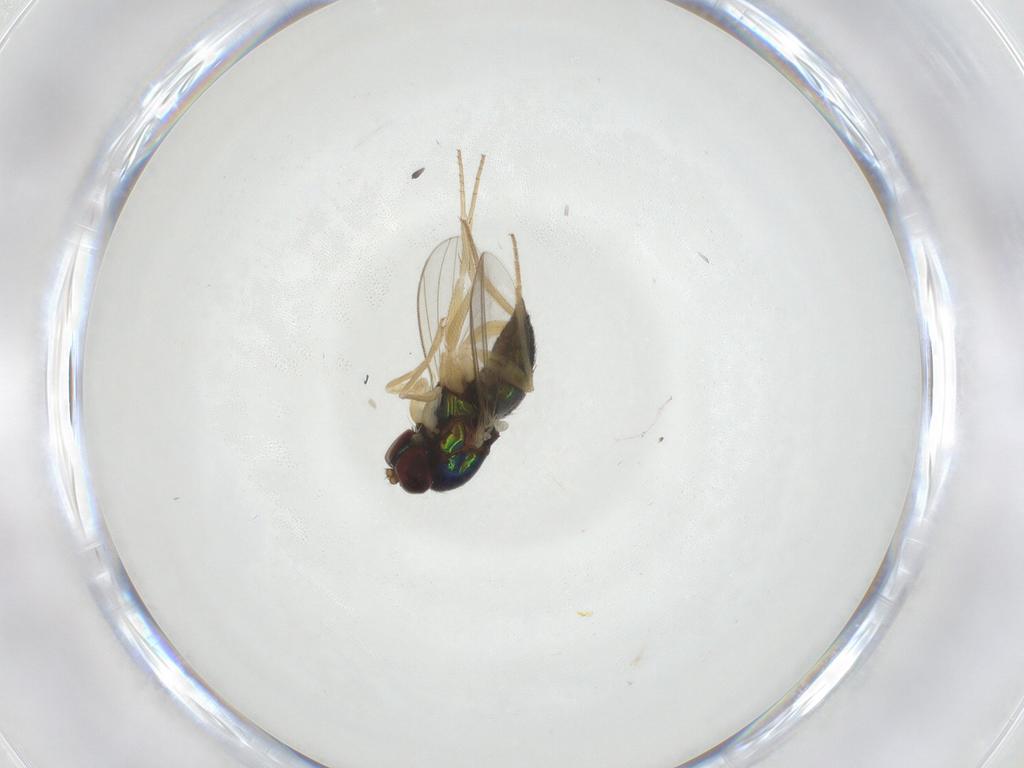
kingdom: Animalia
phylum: Arthropoda
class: Insecta
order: Diptera
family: Dolichopodidae
